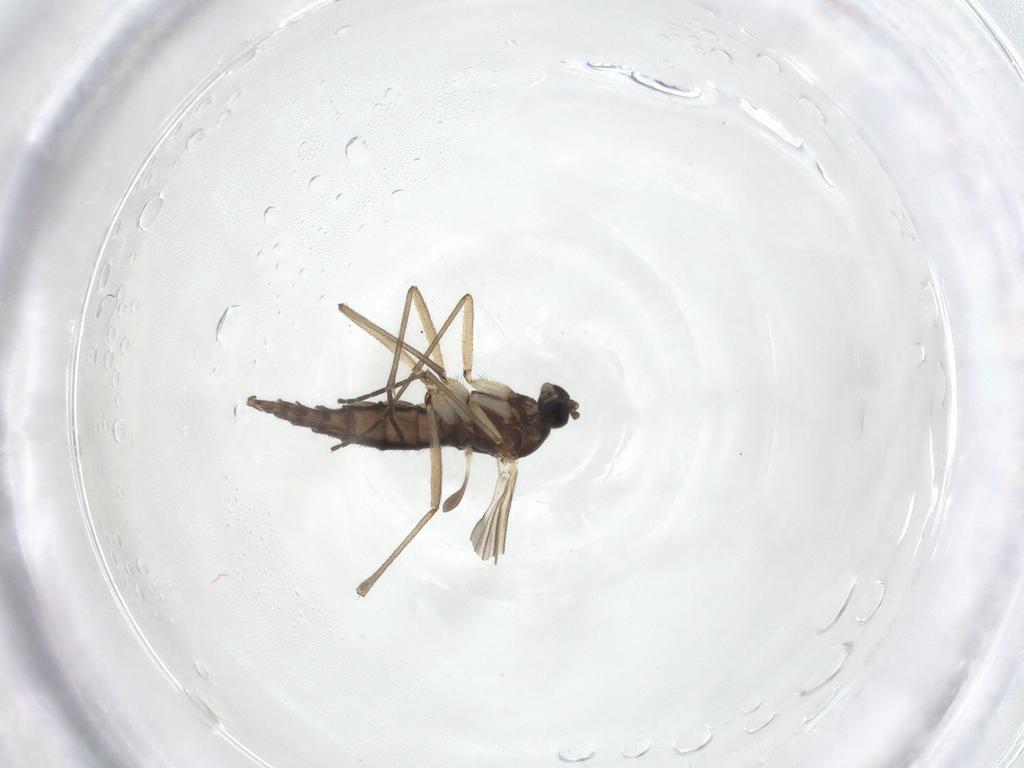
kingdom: Animalia
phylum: Arthropoda
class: Insecta
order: Diptera
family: Sciaridae
